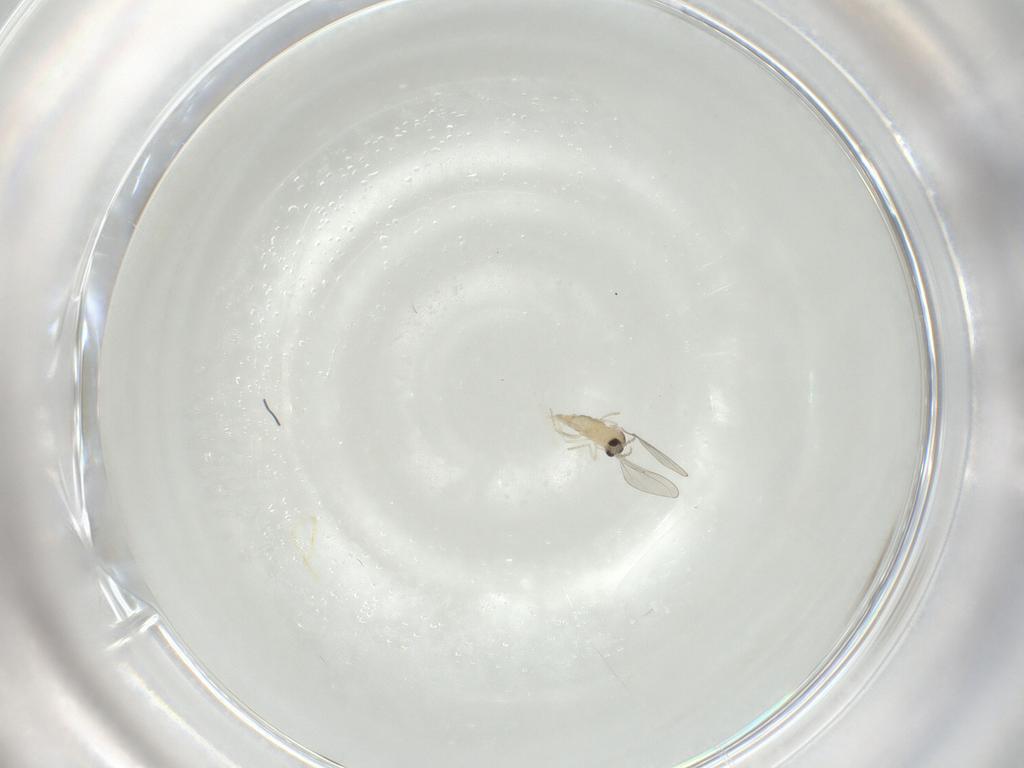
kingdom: Animalia
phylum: Arthropoda
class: Insecta
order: Diptera
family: Cecidomyiidae
